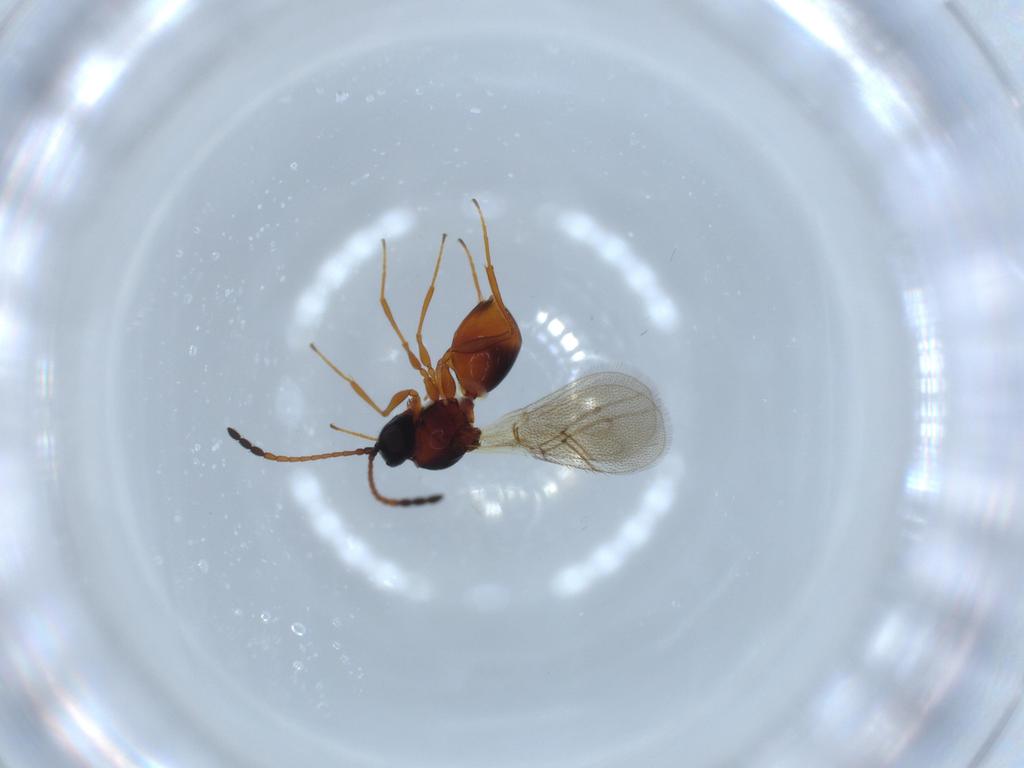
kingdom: Animalia
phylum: Arthropoda
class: Insecta
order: Hymenoptera
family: Figitidae
